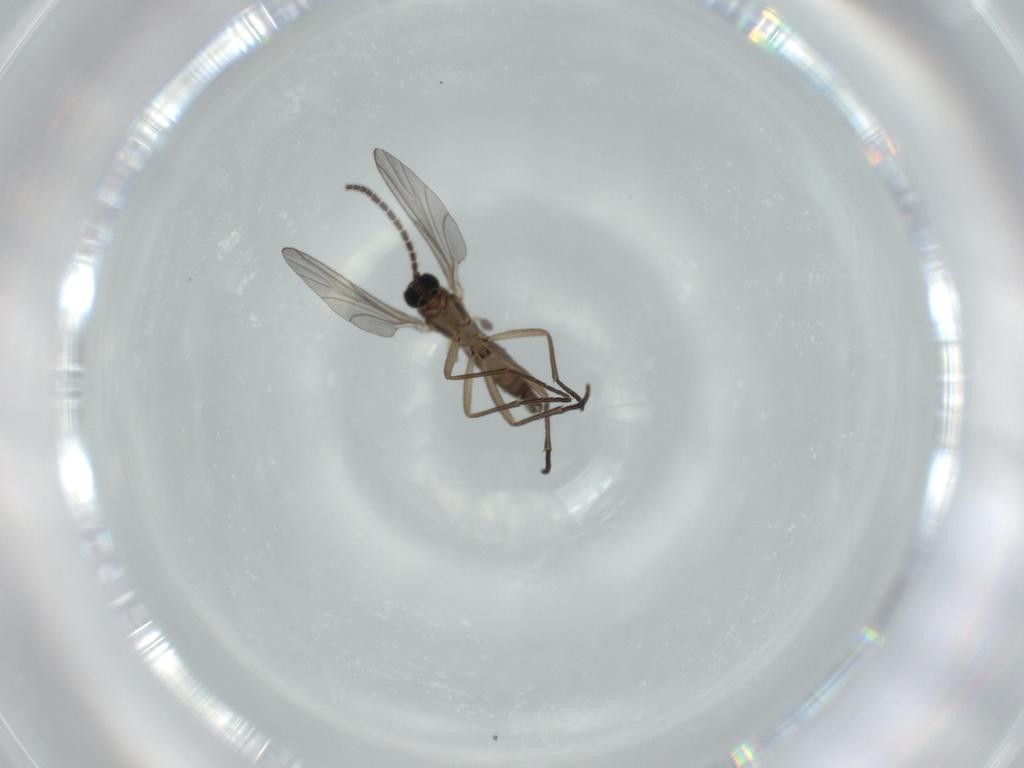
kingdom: Animalia
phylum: Arthropoda
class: Insecta
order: Diptera
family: Sciaridae
